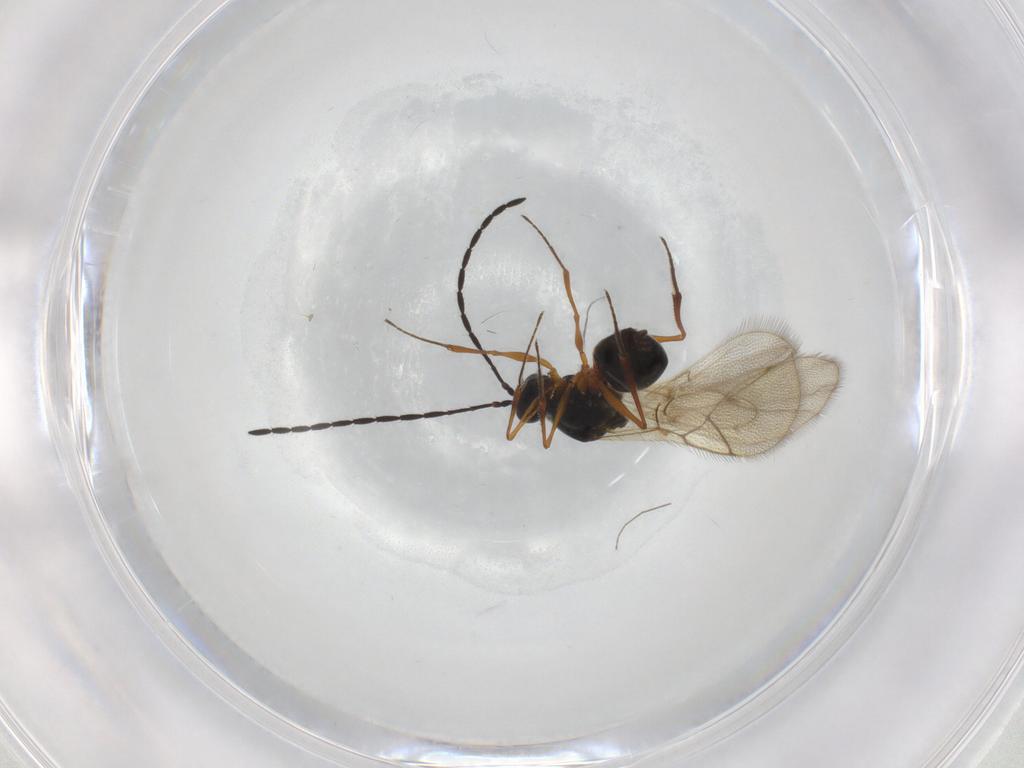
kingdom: Animalia
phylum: Arthropoda
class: Insecta
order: Hymenoptera
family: Figitidae
